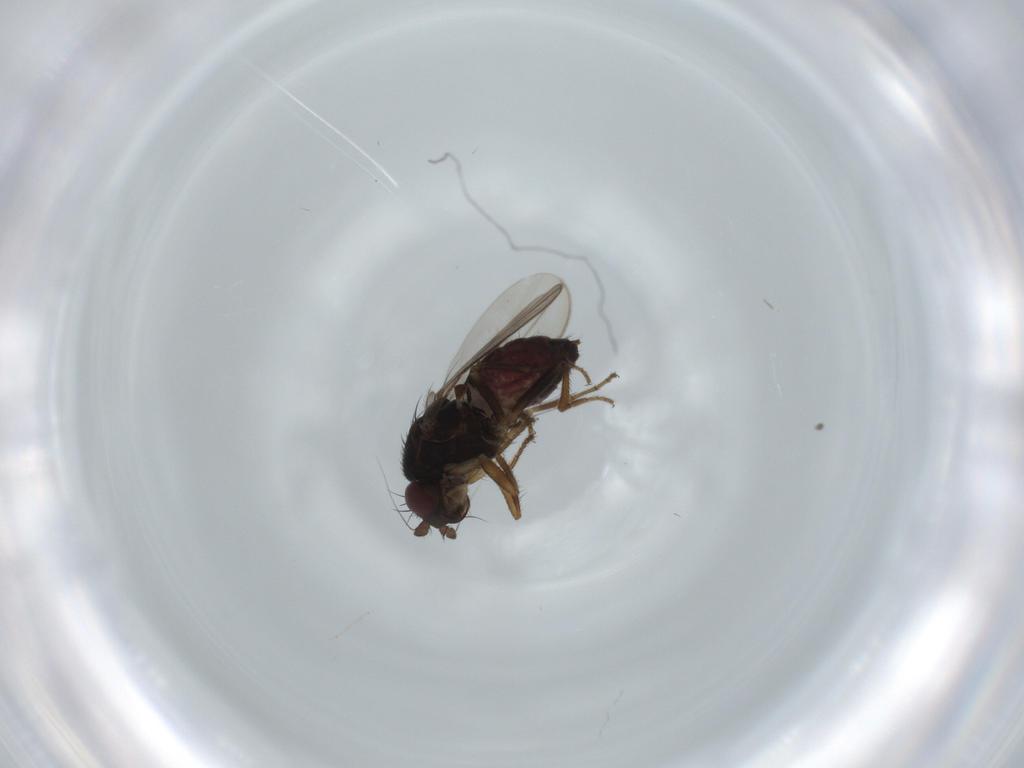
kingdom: Animalia
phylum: Arthropoda
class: Insecta
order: Diptera
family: Sphaeroceridae
